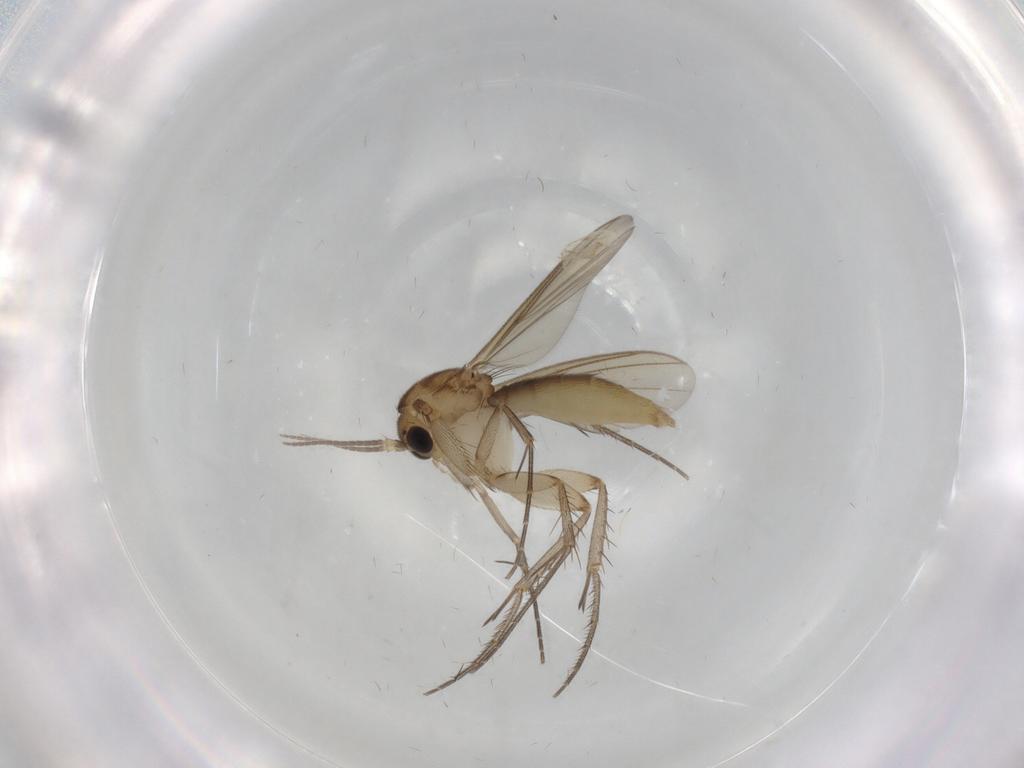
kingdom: Animalia
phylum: Arthropoda
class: Insecta
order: Diptera
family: Mycetophilidae
